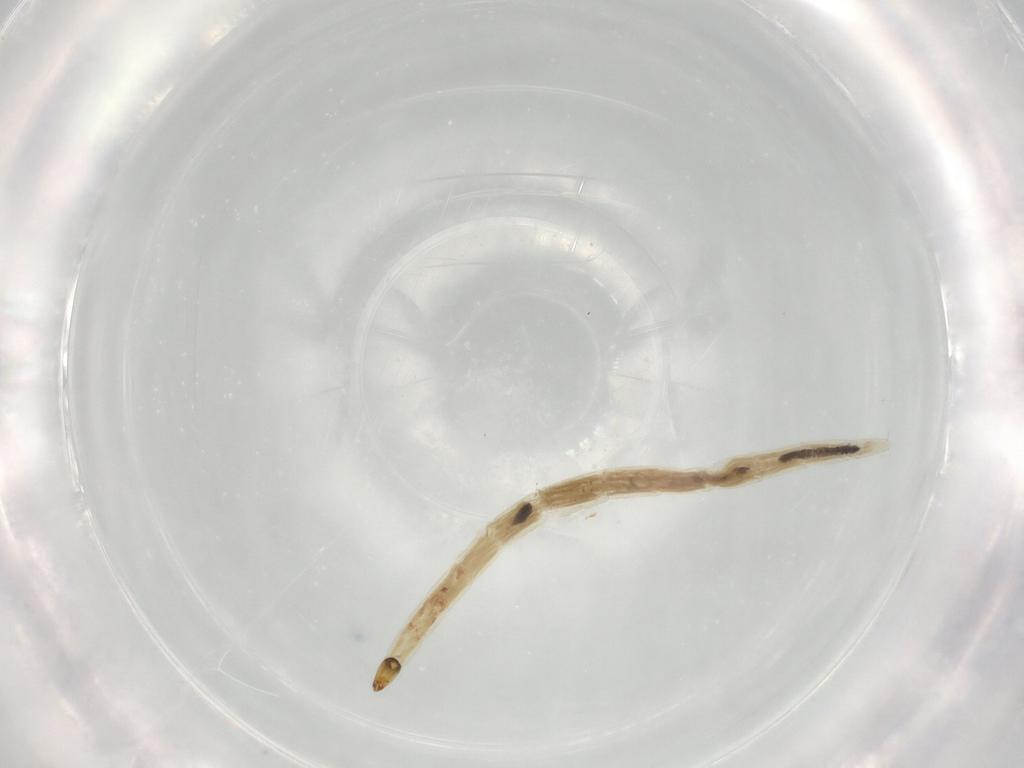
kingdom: Animalia
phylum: Arthropoda
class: Insecta
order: Diptera
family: Ceratopogonidae
